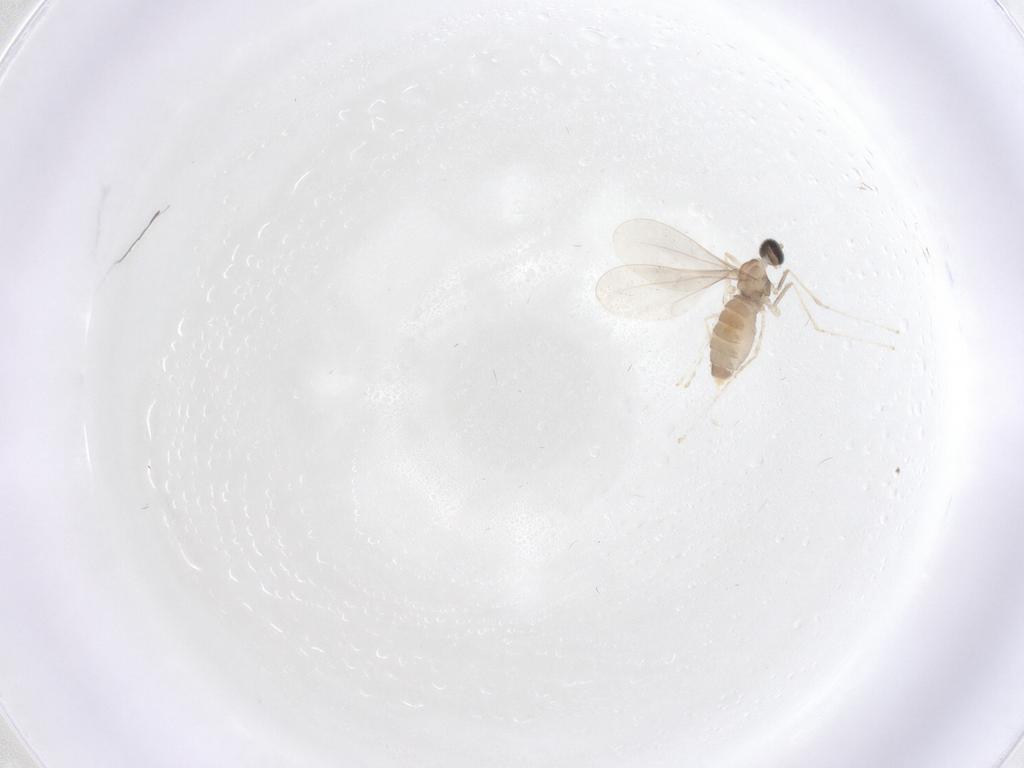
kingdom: Animalia
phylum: Arthropoda
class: Insecta
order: Diptera
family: Cecidomyiidae
